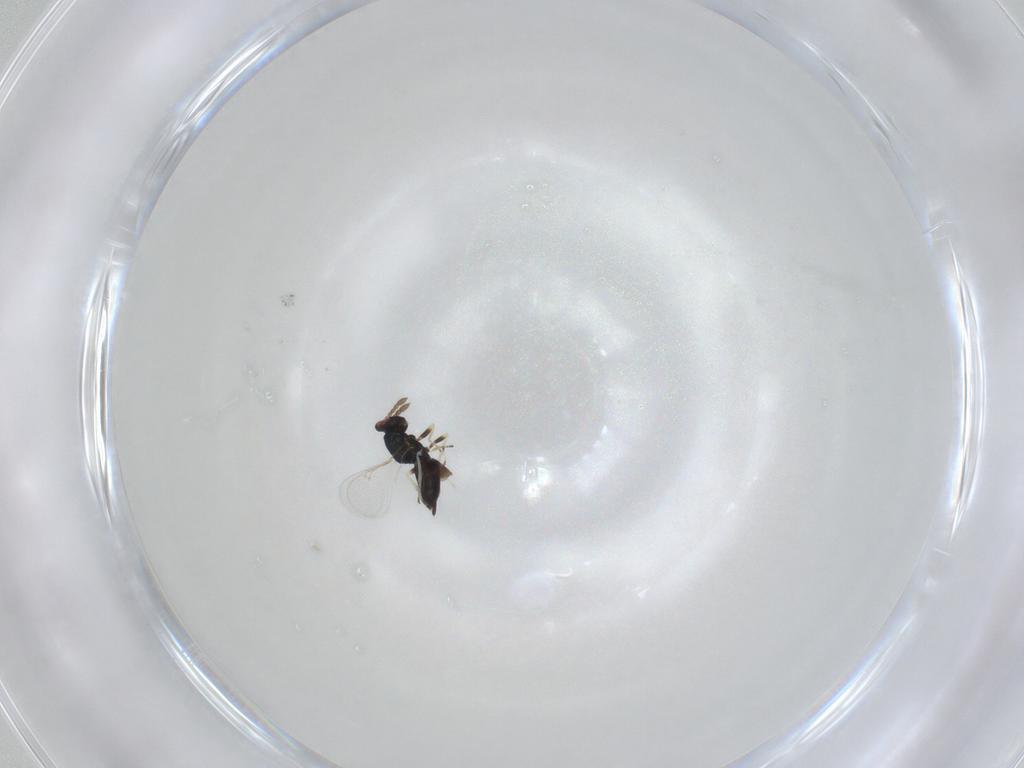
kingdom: Animalia
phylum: Arthropoda
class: Insecta
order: Hymenoptera
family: Eulophidae
